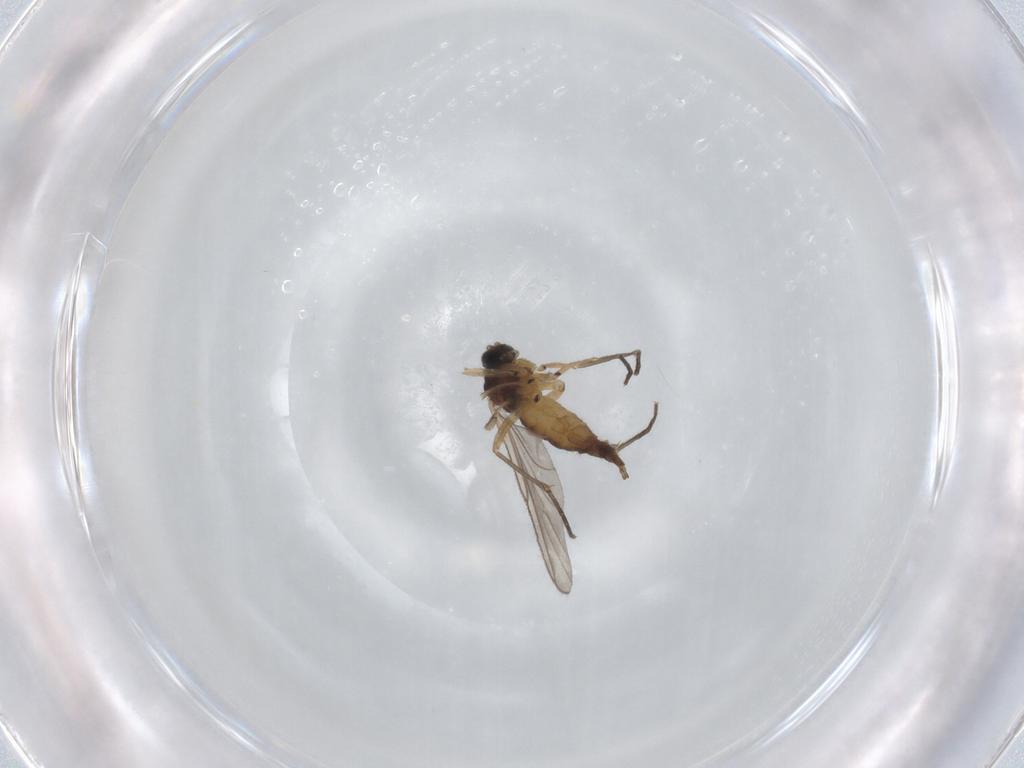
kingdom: Animalia
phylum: Arthropoda
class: Insecta
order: Diptera
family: Sciaridae
